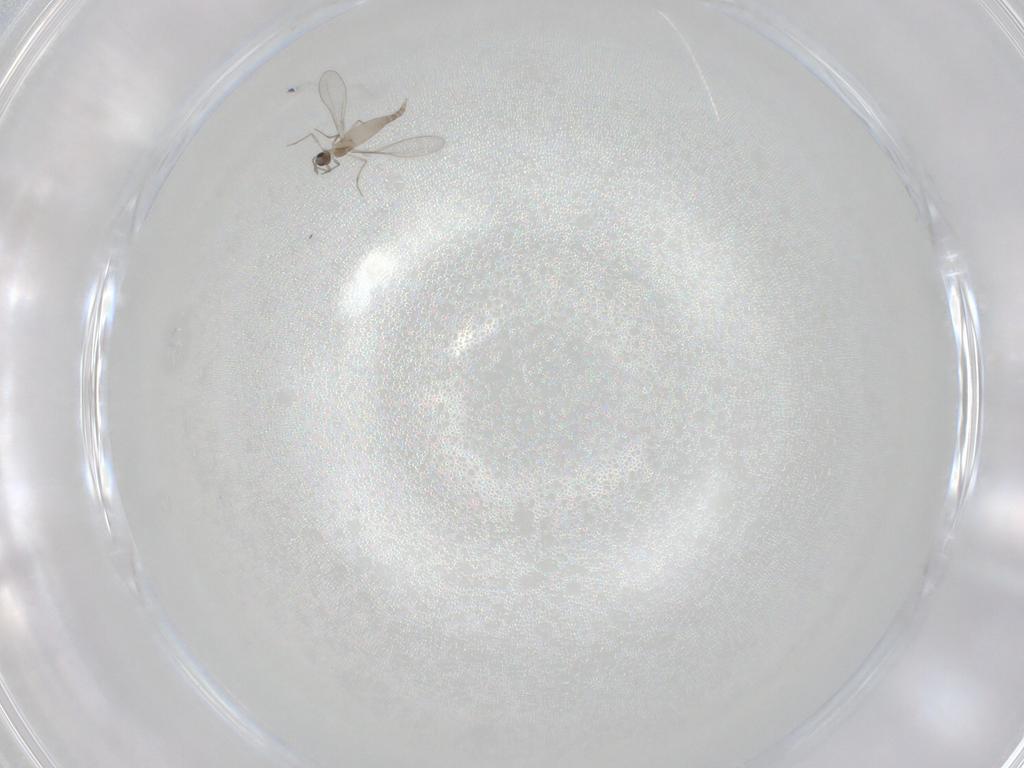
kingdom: Animalia
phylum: Arthropoda
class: Insecta
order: Diptera
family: Cecidomyiidae
